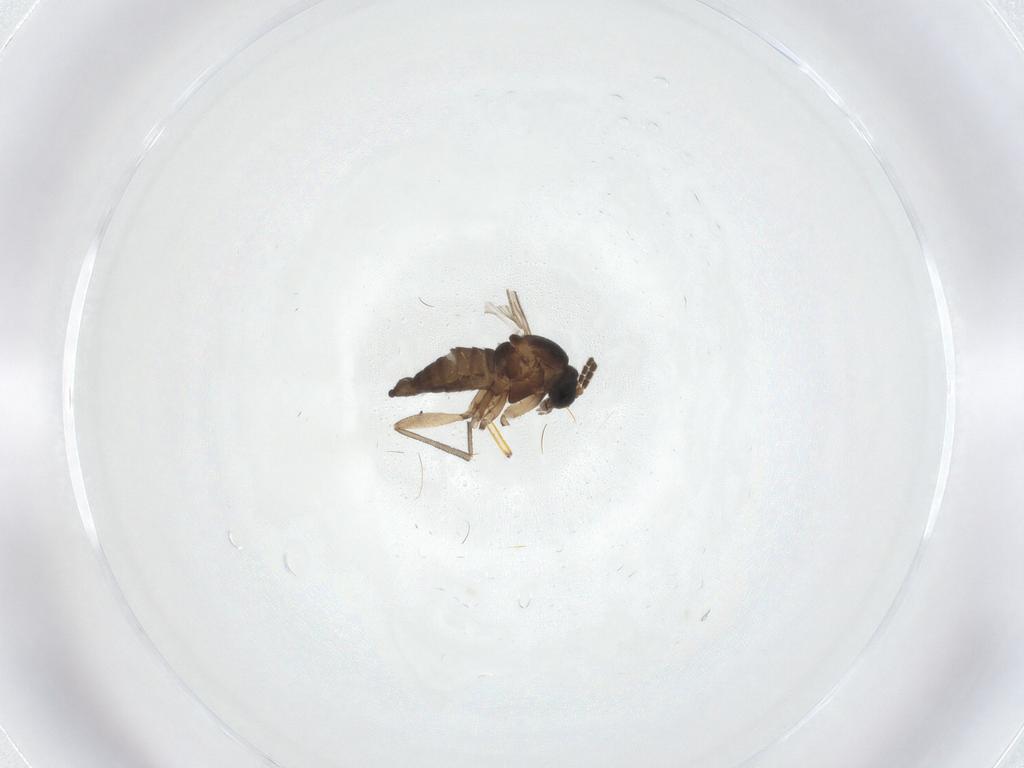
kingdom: Animalia
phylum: Arthropoda
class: Insecta
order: Diptera
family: Sciaridae
